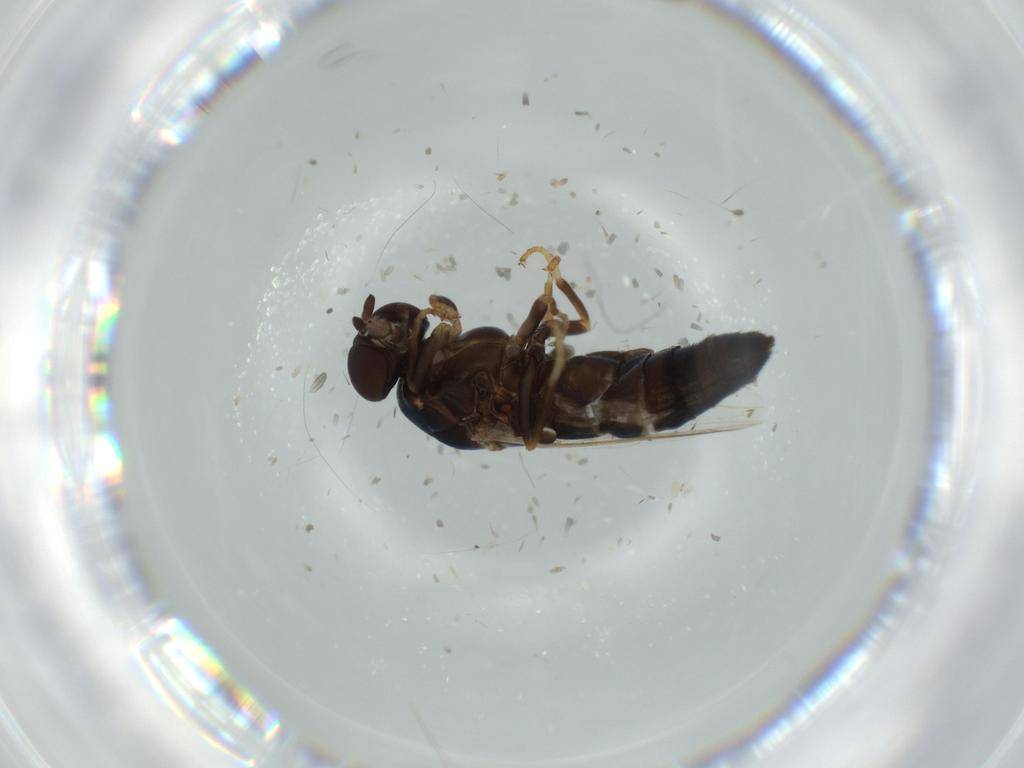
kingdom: Animalia
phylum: Arthropoda
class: Insecta
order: Diptera
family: Scenopinidae
